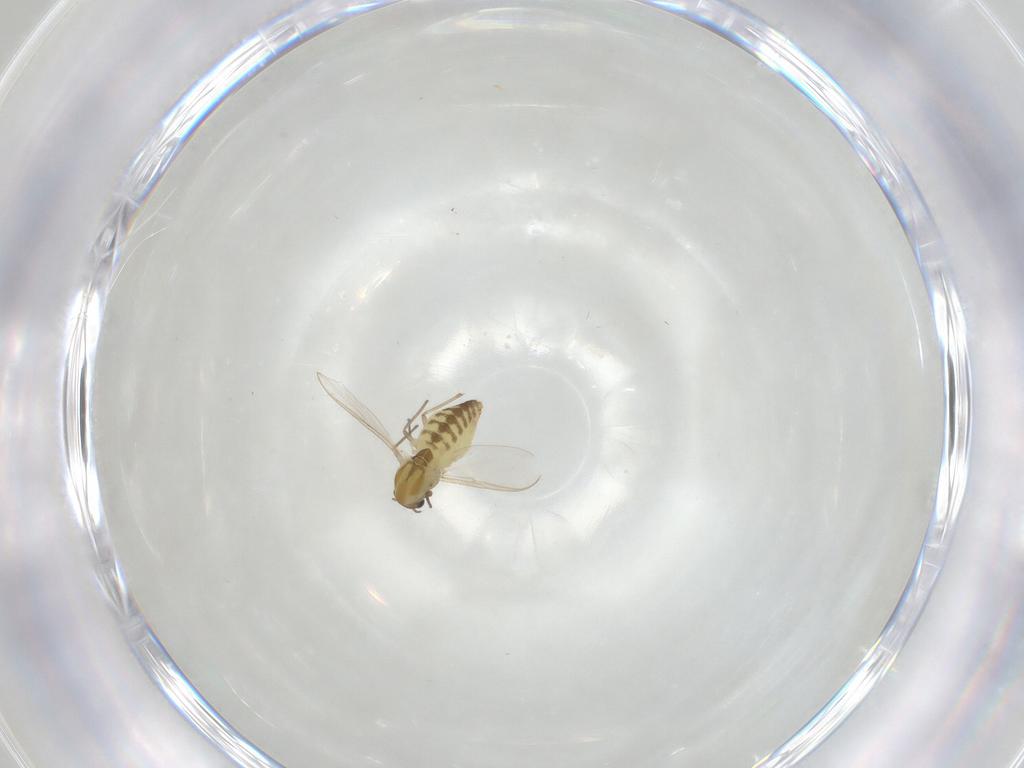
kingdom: Animalia
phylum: Arthropoda
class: Insecta
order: Diptera
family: Chironomidae
